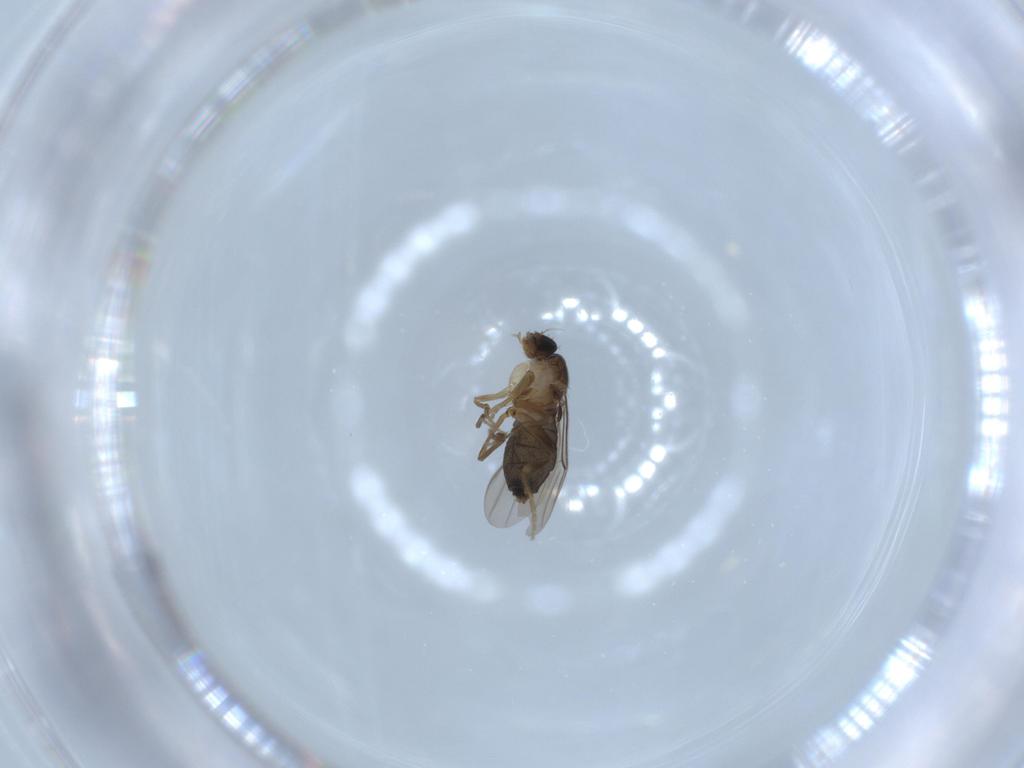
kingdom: Animalia
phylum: Arthropoda
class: Insecta
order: Diptera
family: Phoridae
